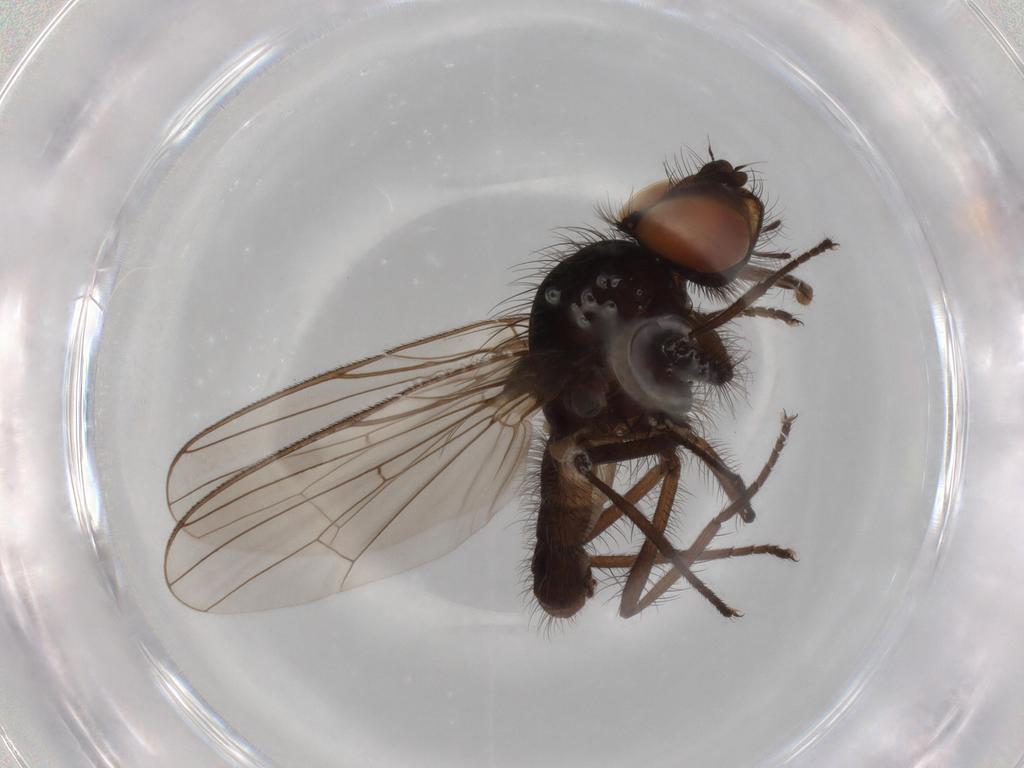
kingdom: Animalia
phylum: Arthropoda
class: Insecta
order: Diptera
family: Anthomyiidae
